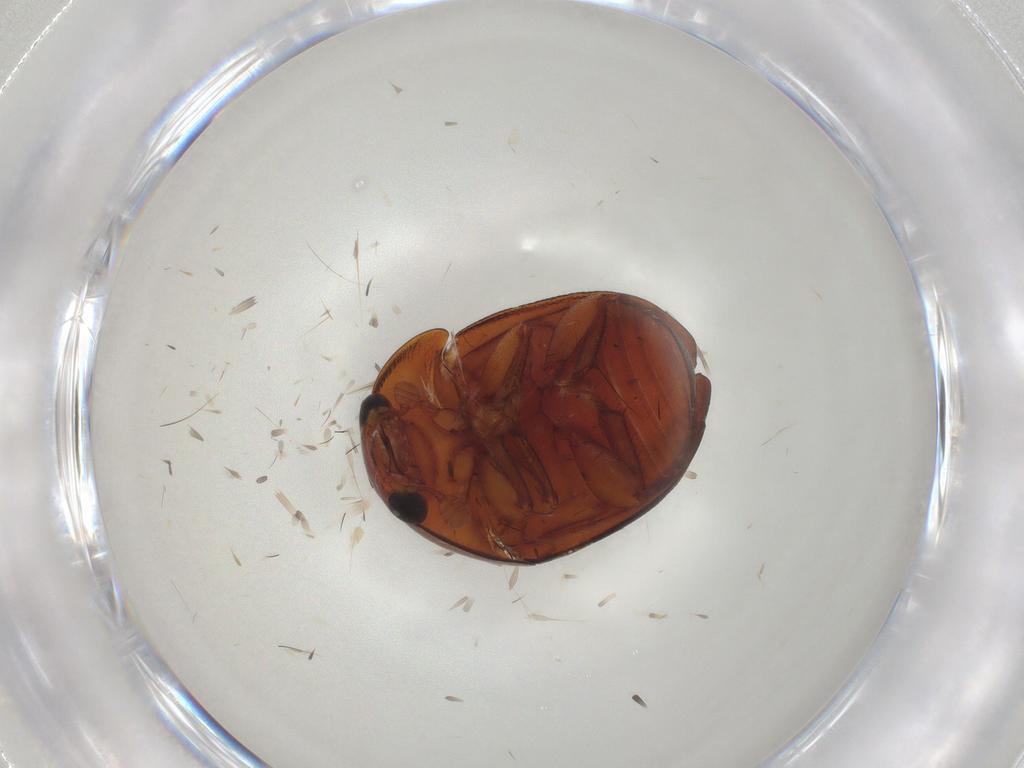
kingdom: Animalia
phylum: Arthropoda
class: Insecta
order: Coleoptera
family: Nitidulidae
